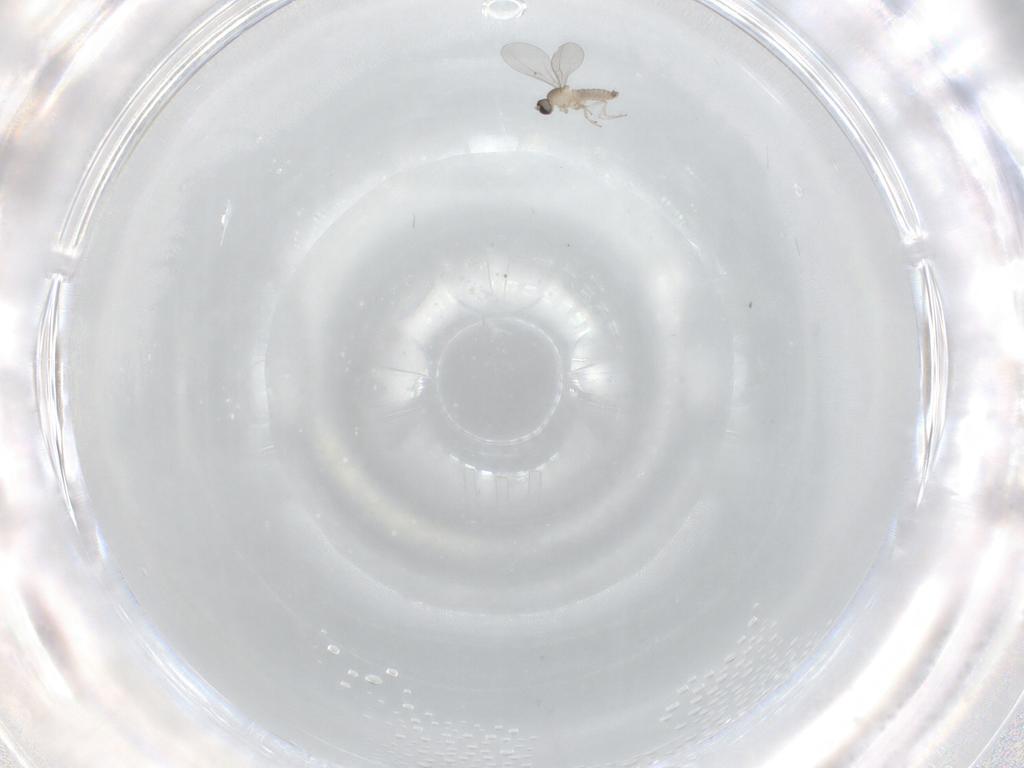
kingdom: Animalia
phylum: Arthropoda
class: Insecta
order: Diptera
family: Cecidomyiidae
